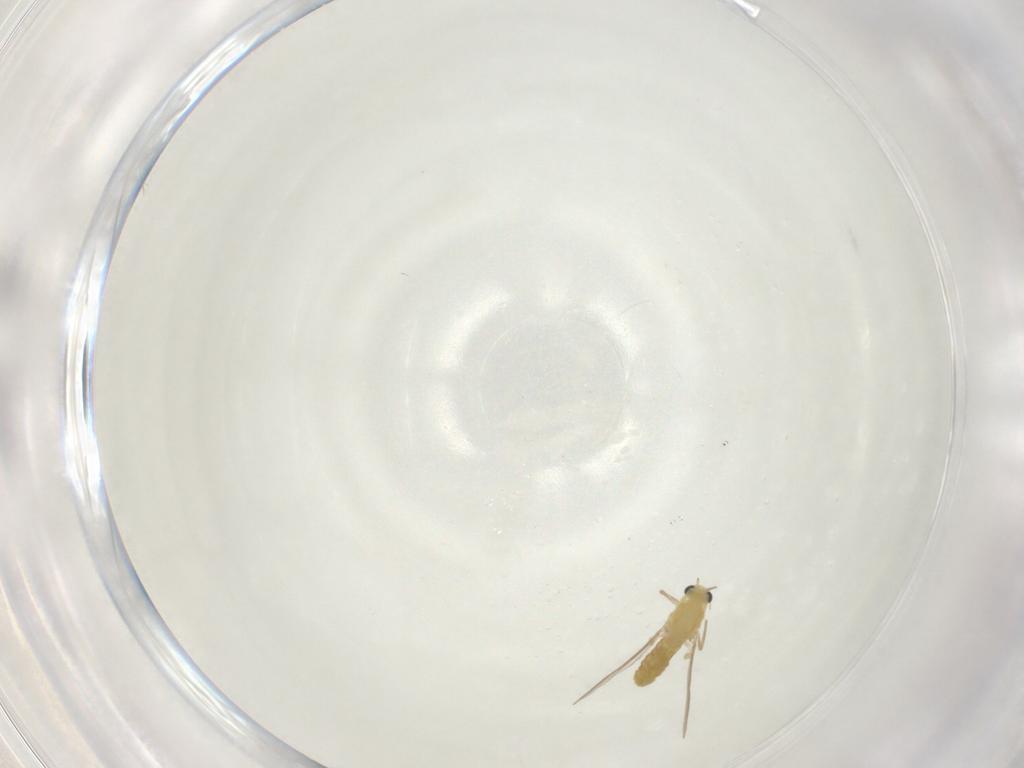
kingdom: Animalia
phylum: Arthropoda
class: Insecta
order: Diptera
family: Chironomidae
